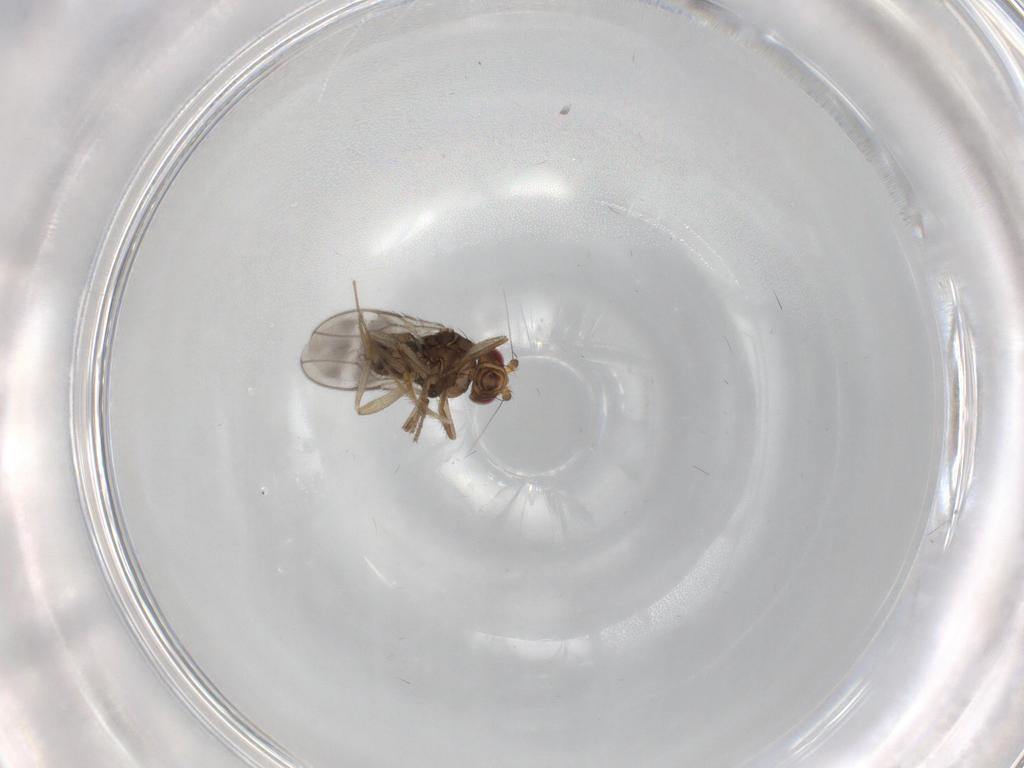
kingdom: Animalia
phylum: Arthropoda
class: Insecta
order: Diptera
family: Sphaeroceridae
